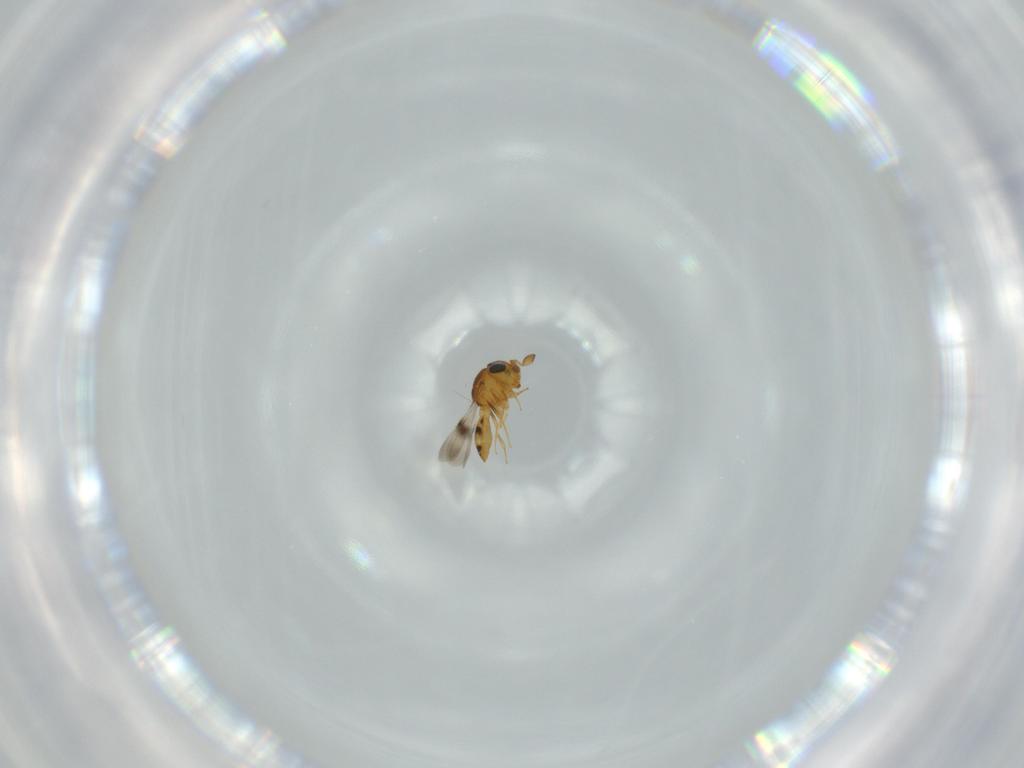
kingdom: Animalia
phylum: Arthropoda
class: Insecta
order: Hymenoptera
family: Scelionidae
